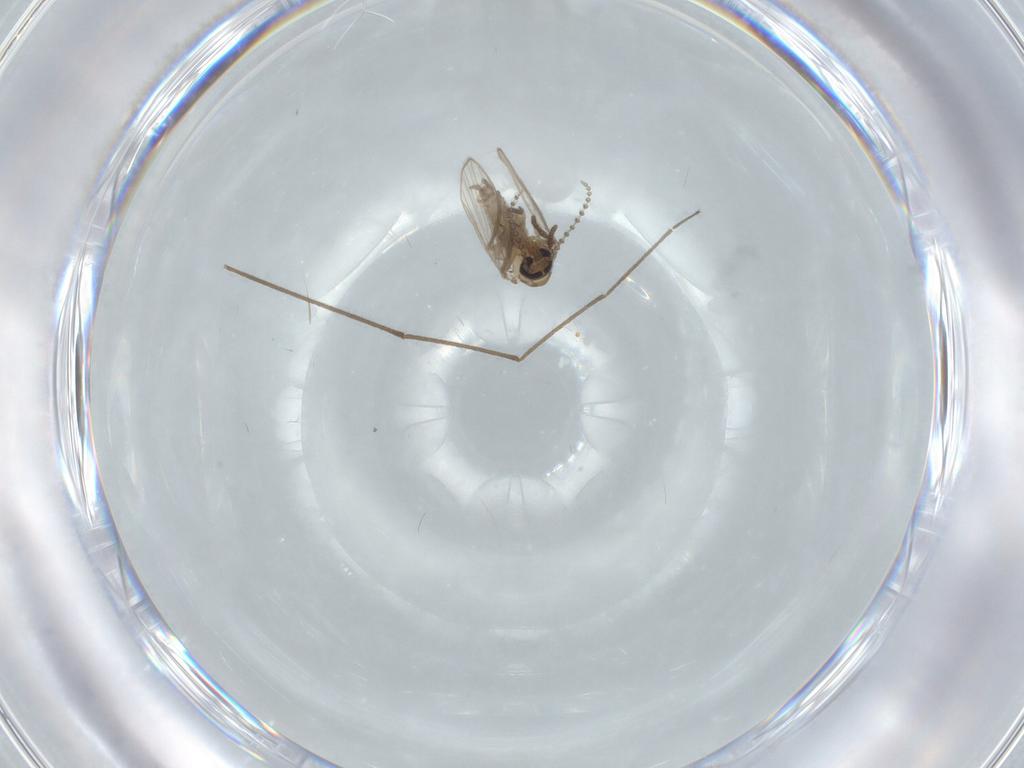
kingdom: Animalia
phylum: Arthropoda
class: Insecta
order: Diptera
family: Psychodidae
